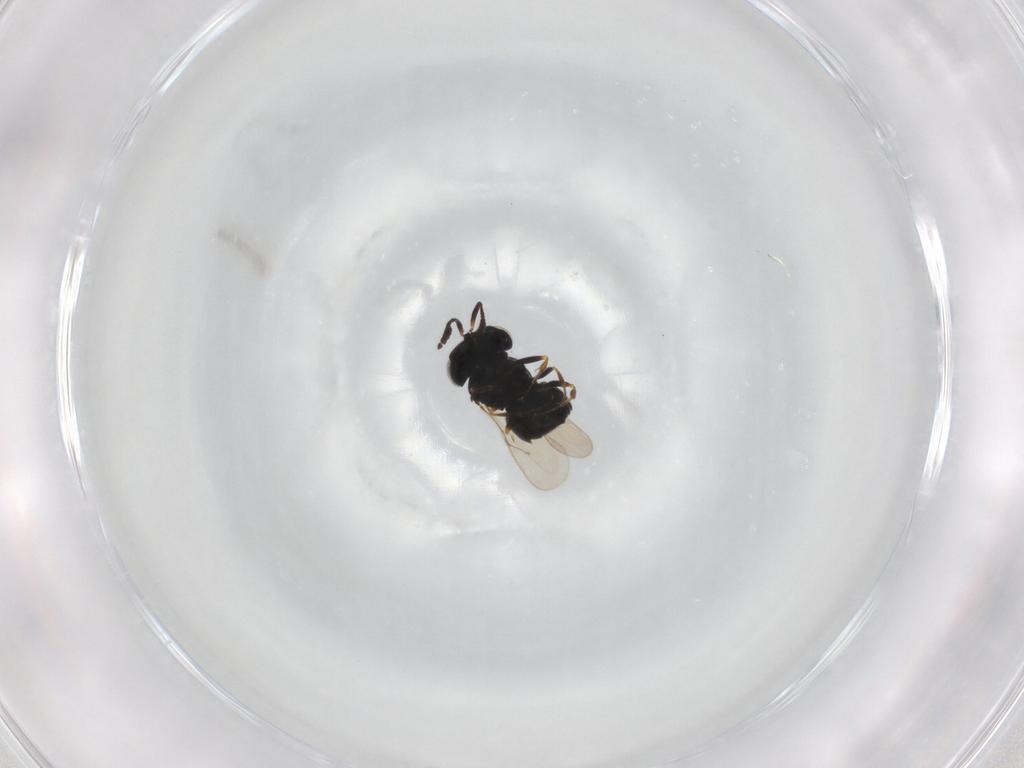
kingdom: Animalia
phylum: Arthropoda
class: Insecta
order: Hymenoptera
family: Scelionidae
